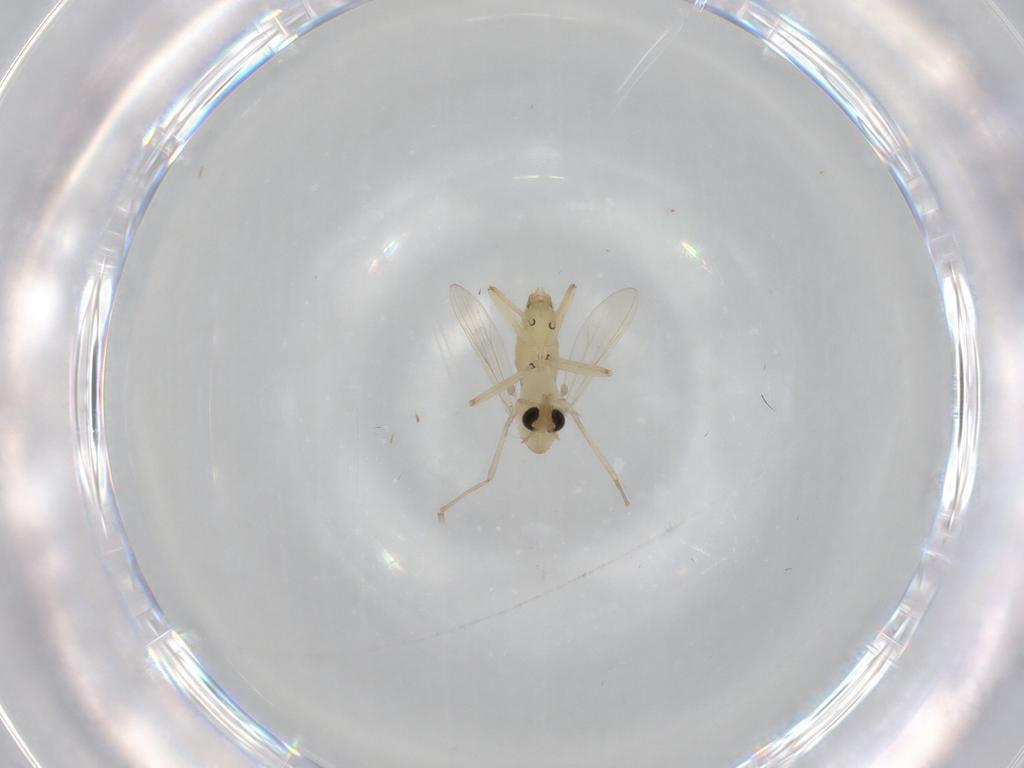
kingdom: Animalia
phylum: Arthropoda
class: Insecta
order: Diptera
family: Chironomidae
